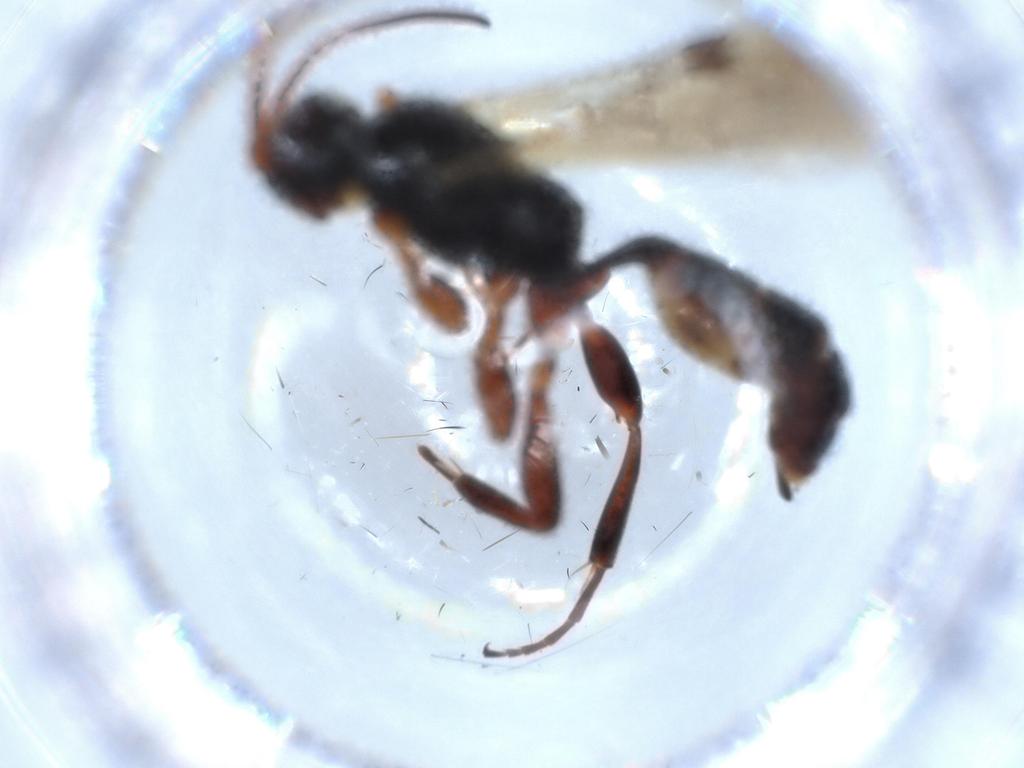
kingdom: Animalia
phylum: Arthropoda
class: Insecta
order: Hymenoptera
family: Ichneumonidae
